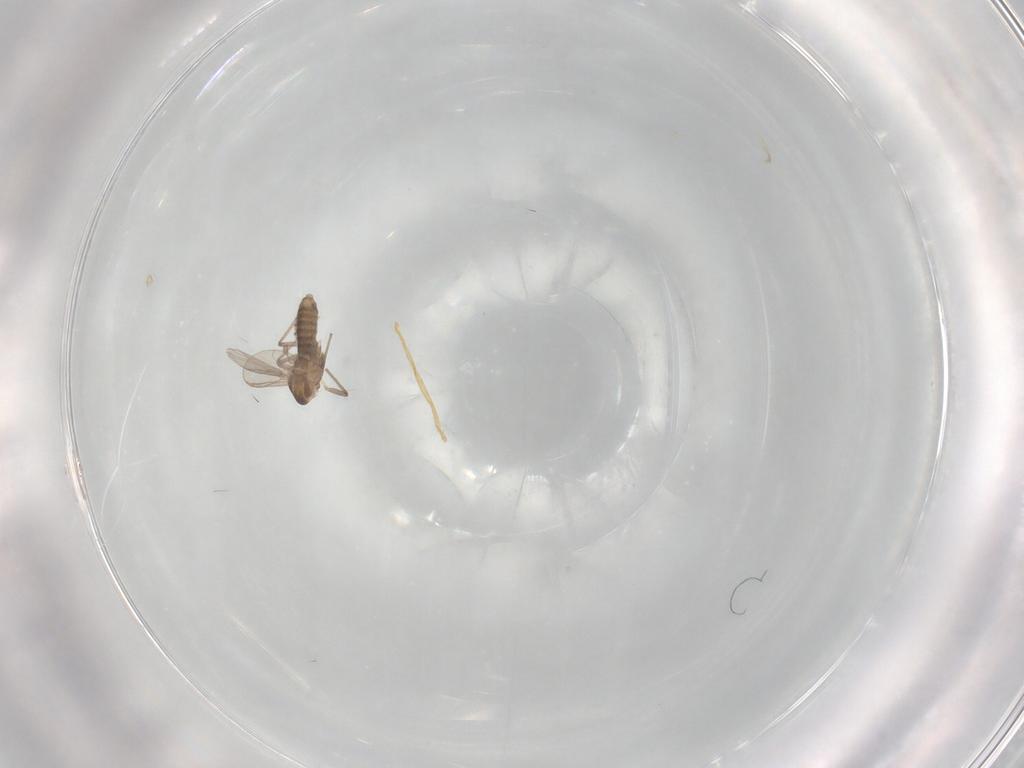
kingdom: Animalia
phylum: Arthropoda
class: Insecta
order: Diptera
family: Chironomidae
